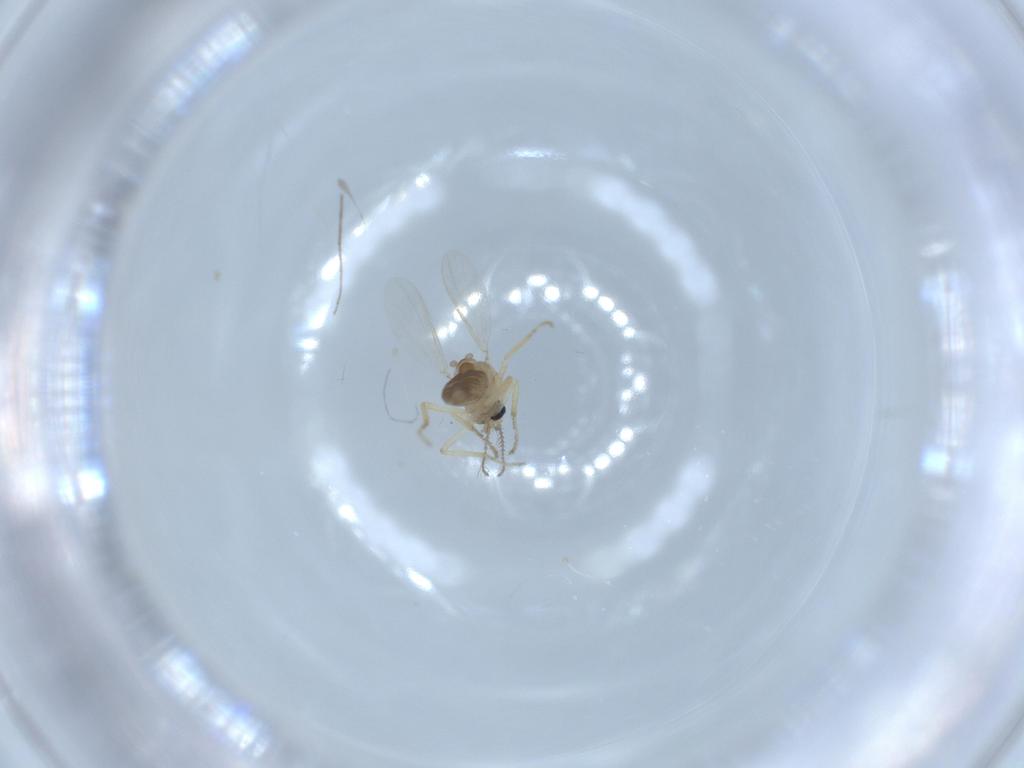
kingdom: Animalia
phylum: Arthropoda
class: Insecta
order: Diptera
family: Ceratopogonidae
